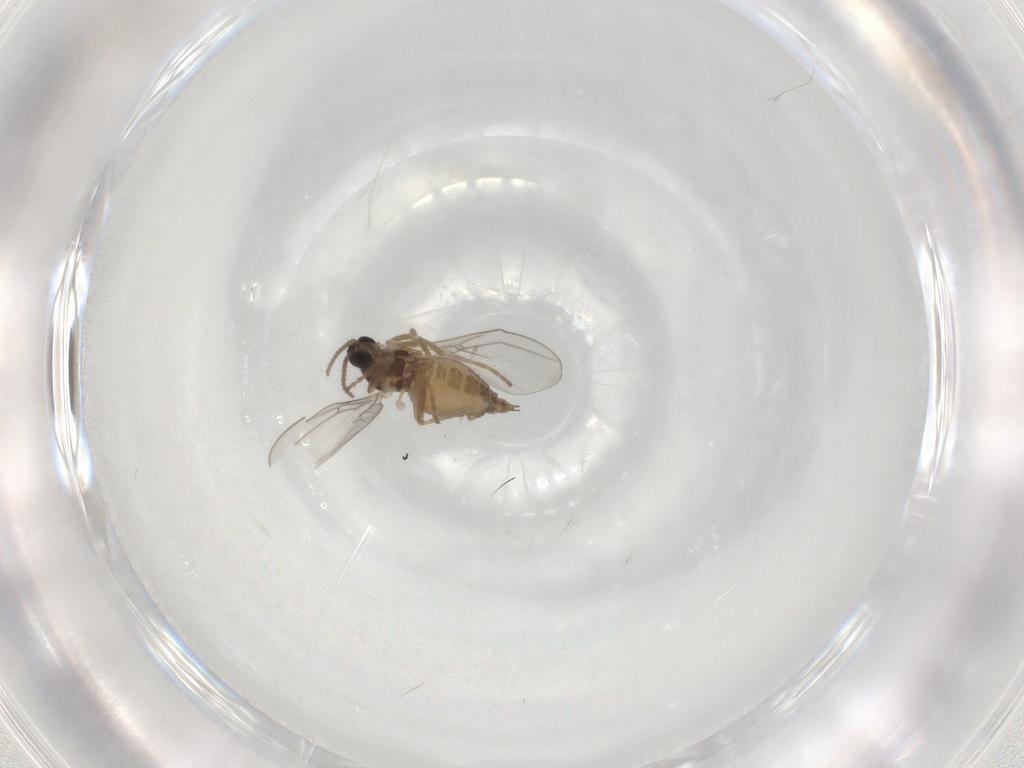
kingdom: Animalia
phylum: Arthropoda
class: Insecta
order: Diptera
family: Cecidomyiidae
